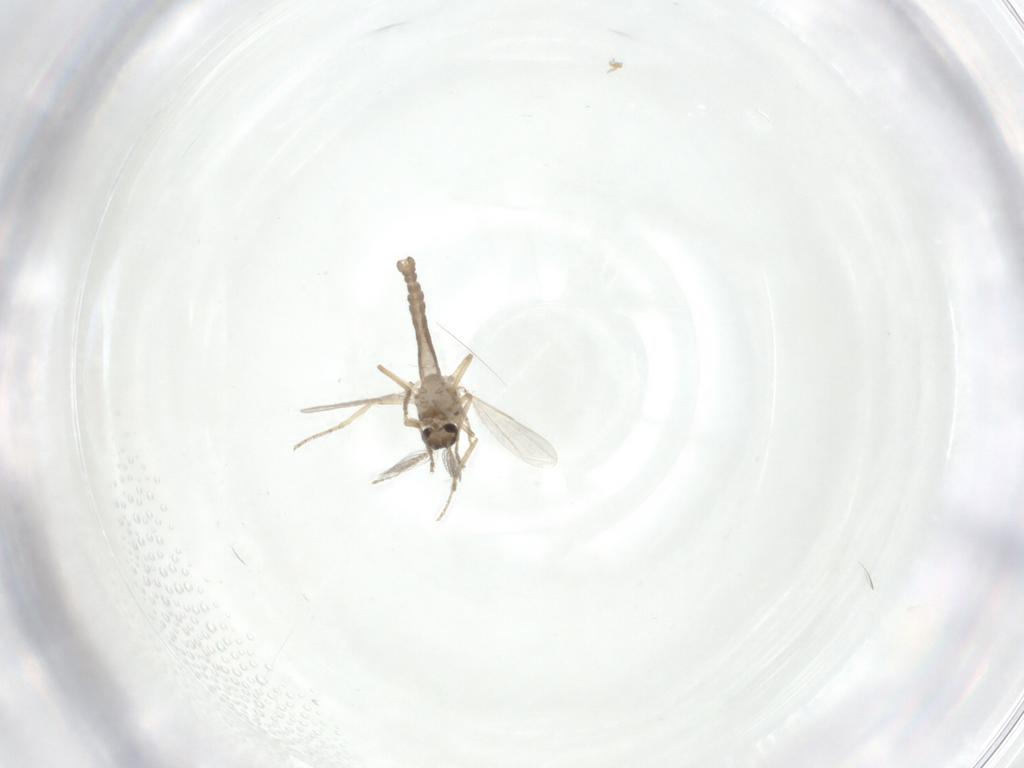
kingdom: Animalia
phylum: Arthropoda
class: Insecta
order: Diptera
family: Ceratopogonidae
